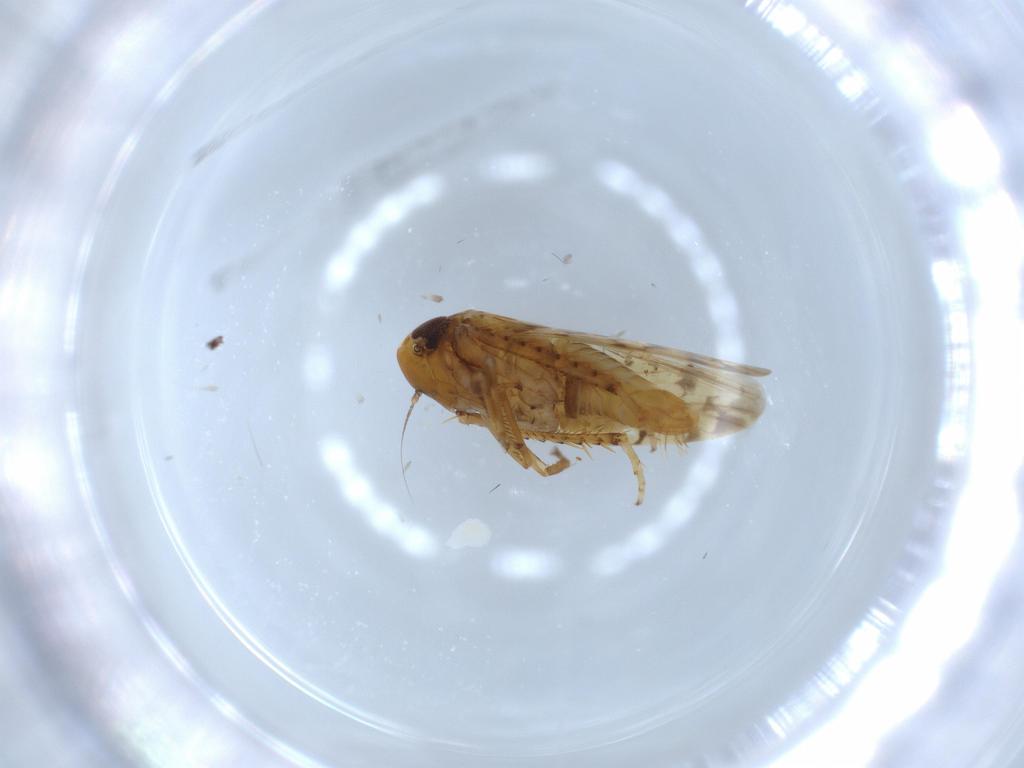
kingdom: Animalia
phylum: Arthropoda
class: Insecta
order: Hemiptera
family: Cicadellidae
